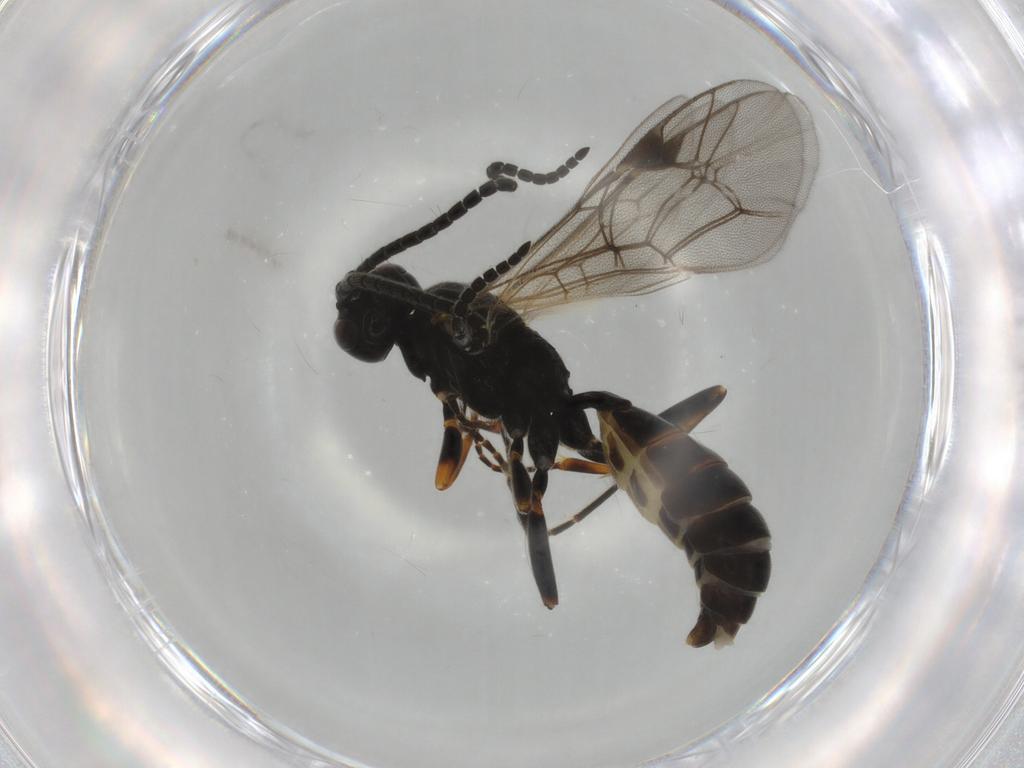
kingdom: Animalia
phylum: Arthropoda
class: Insecta
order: Hymenoptera
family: Ichneumonidae
